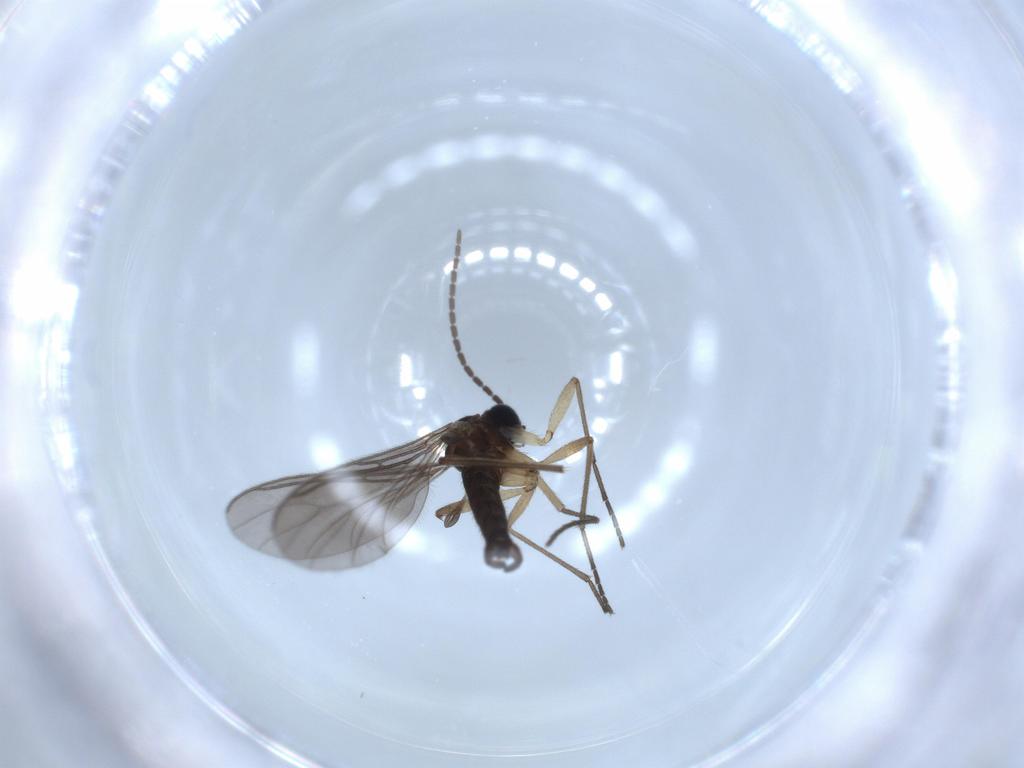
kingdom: Animalia
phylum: Arthropoda
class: Insecta
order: Diptera
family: Sciaridae
